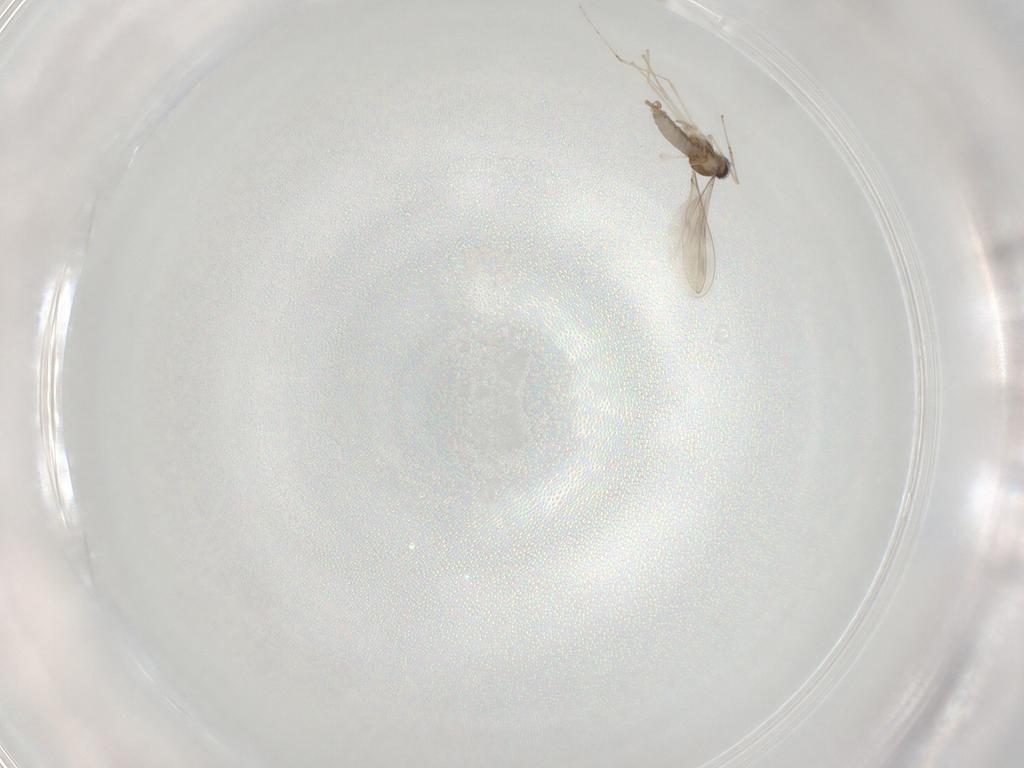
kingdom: Animalia
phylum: Arthropoda
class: Insecta
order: Diptera
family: Cecidomyiidae
